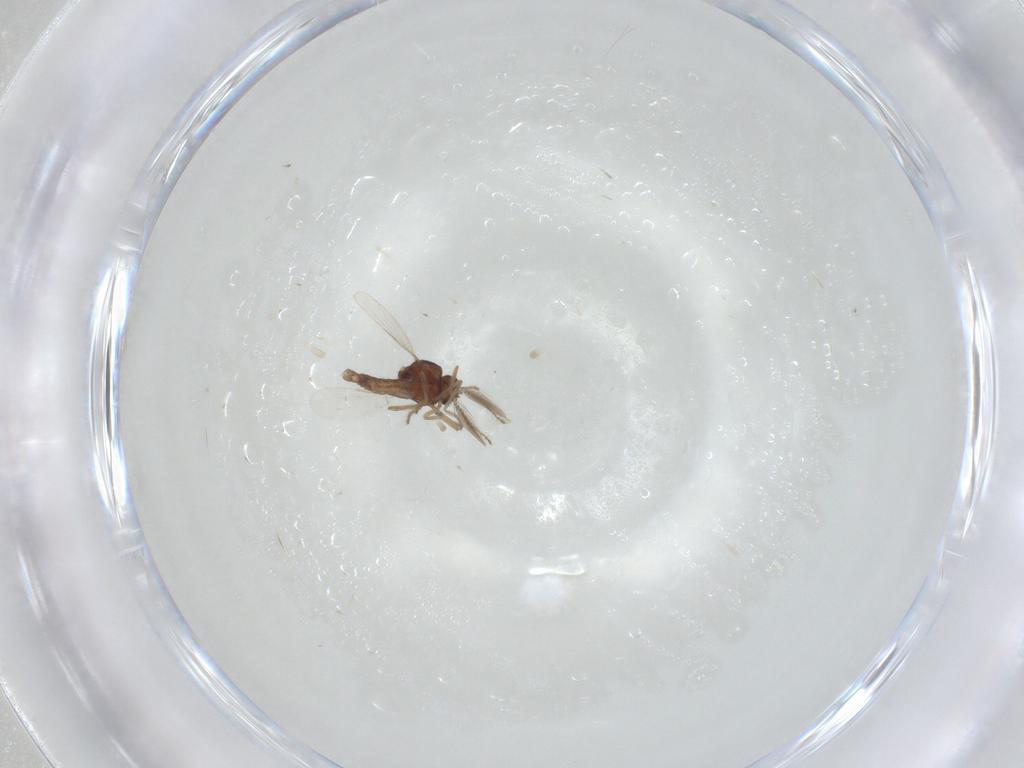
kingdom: Animalia
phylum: Arthropoda
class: Insecta
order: Diptera
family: Ceratopogonidae
